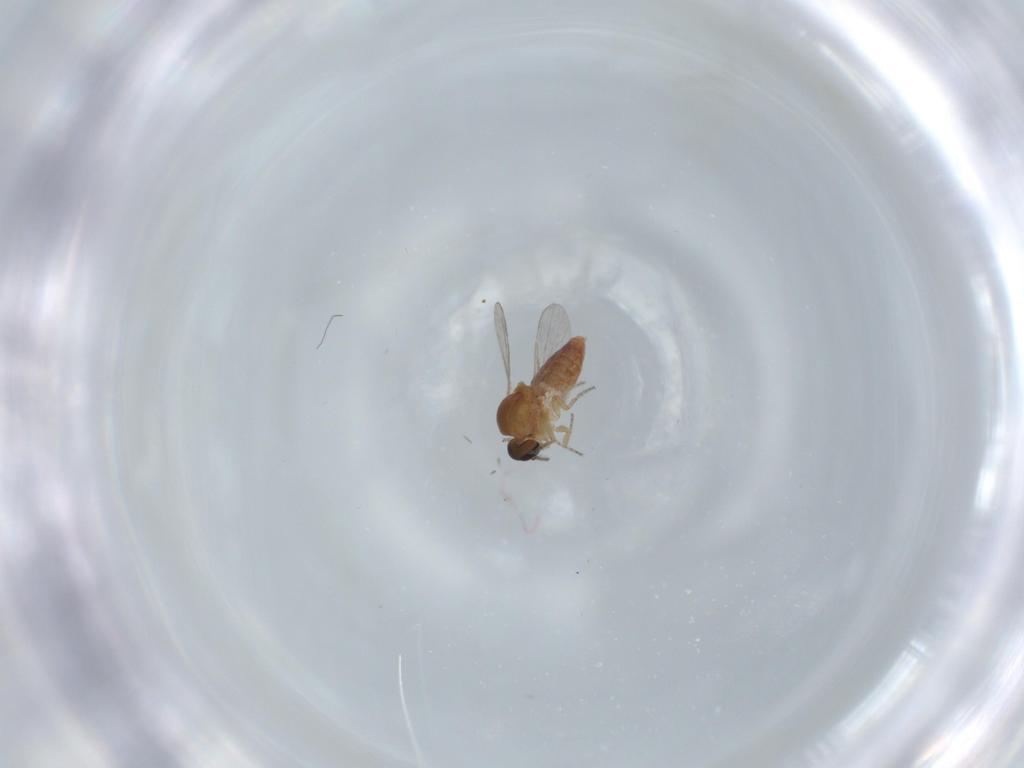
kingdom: Animalia
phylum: Arthropoda
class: Insecta
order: Diptera
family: Ceratopogonidae
